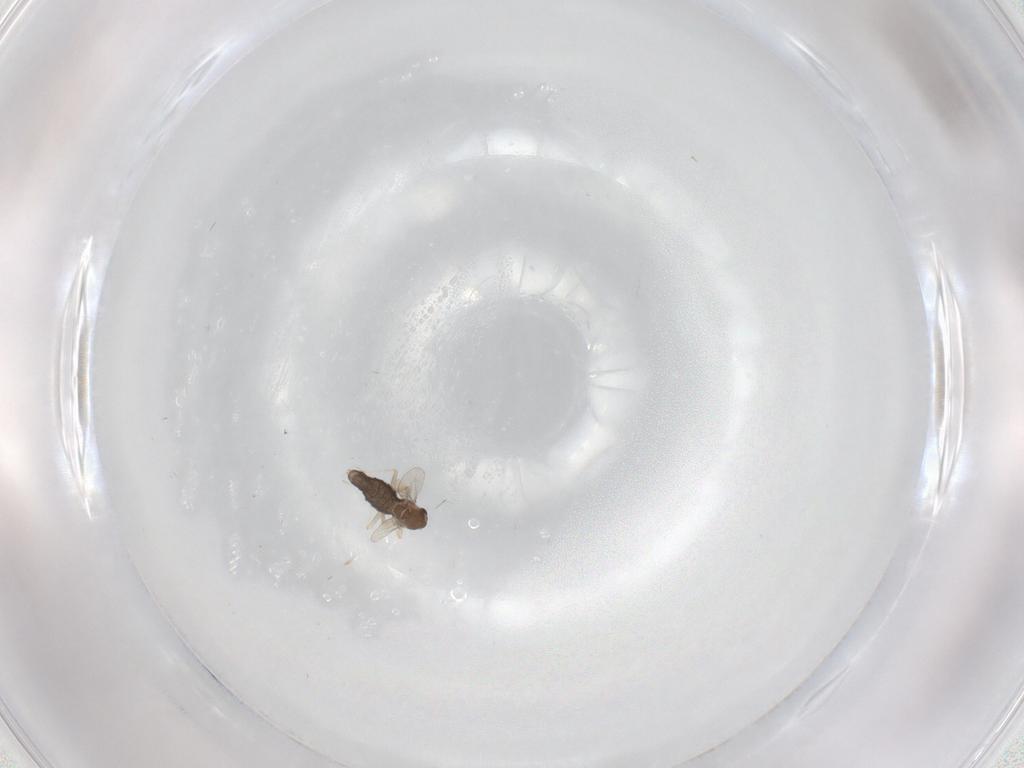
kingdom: Animalia
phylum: Arthropoda
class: Insecta
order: Diptera
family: Chironomidae
